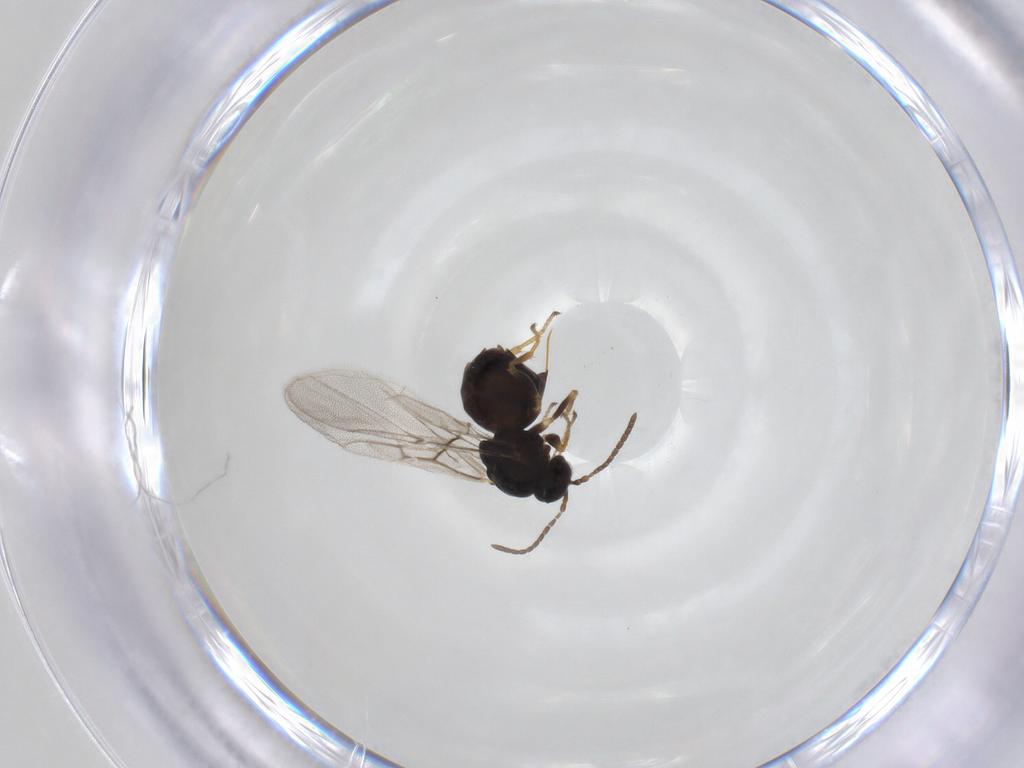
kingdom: Animalia
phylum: Arthropoda
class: Insecta
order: Hymenoptera
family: Cynipidae
